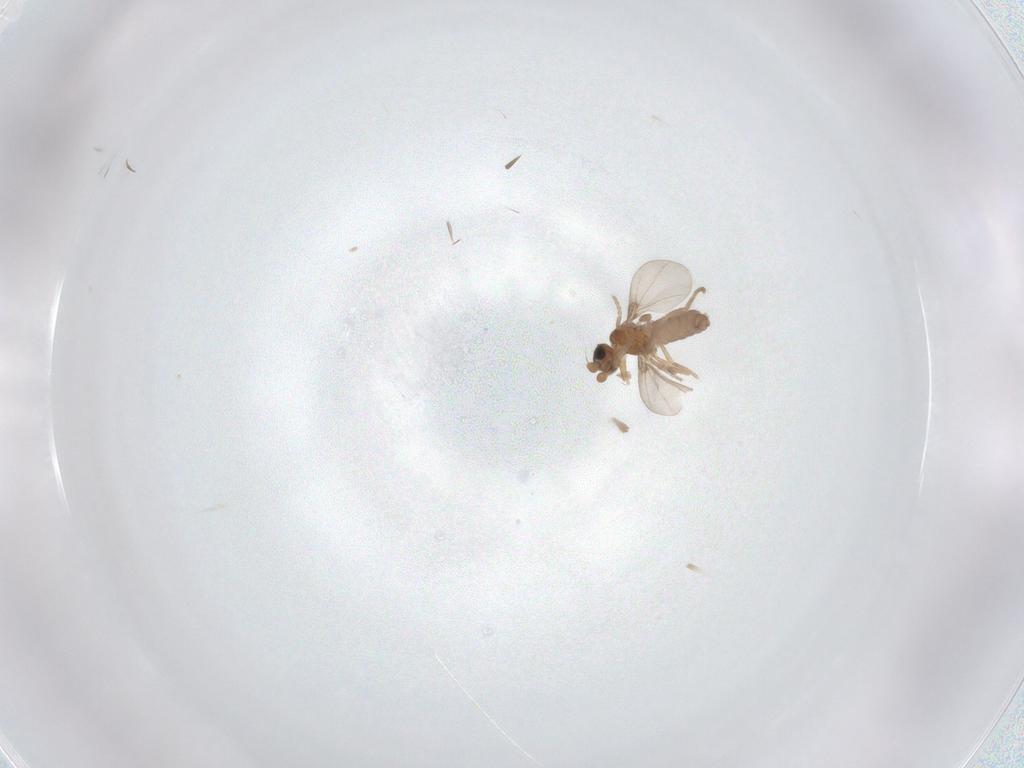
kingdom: Animalia
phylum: Arthropoda
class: Insecta
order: Diptera
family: Phoridae
